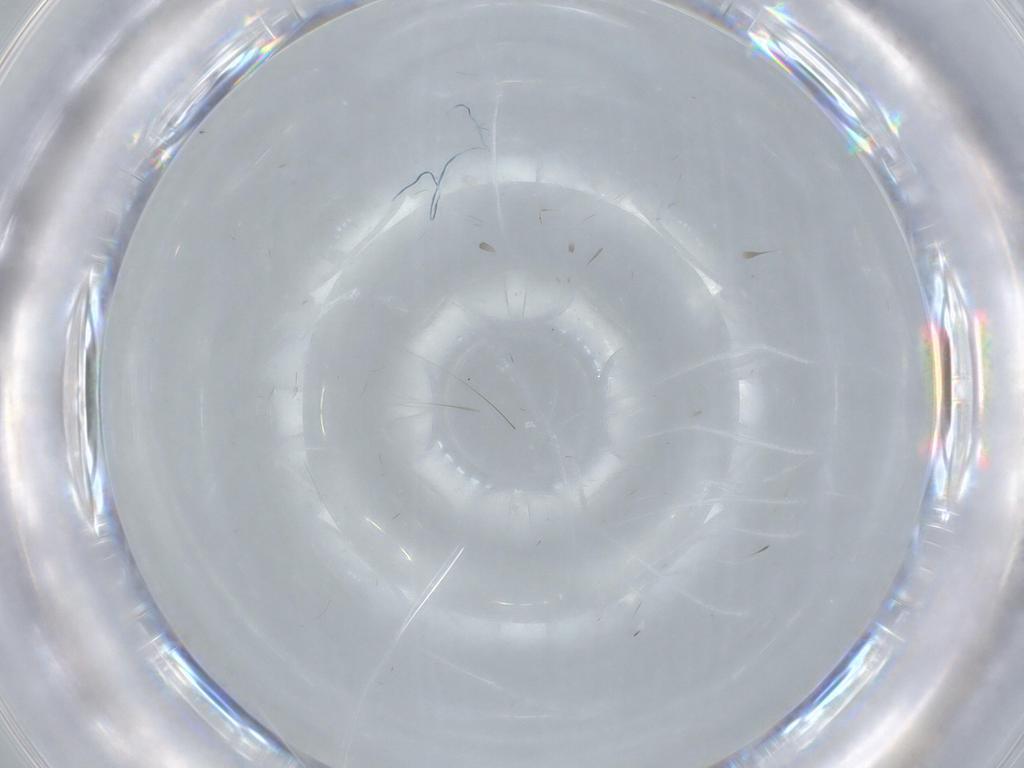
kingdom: Animalia
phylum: Arthropoda
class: Insecta
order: Diptera
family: Cecidomyiidae
